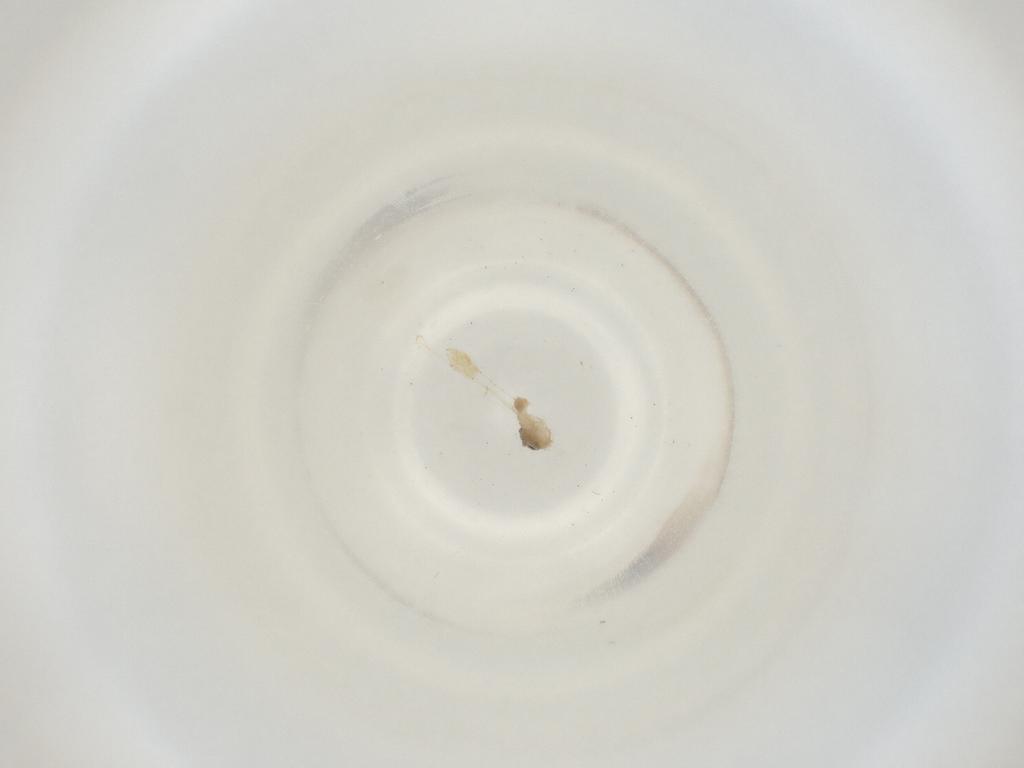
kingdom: Animalia
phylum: Arthropoda
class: Insecta
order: Diptera
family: Cecidomyiidae
